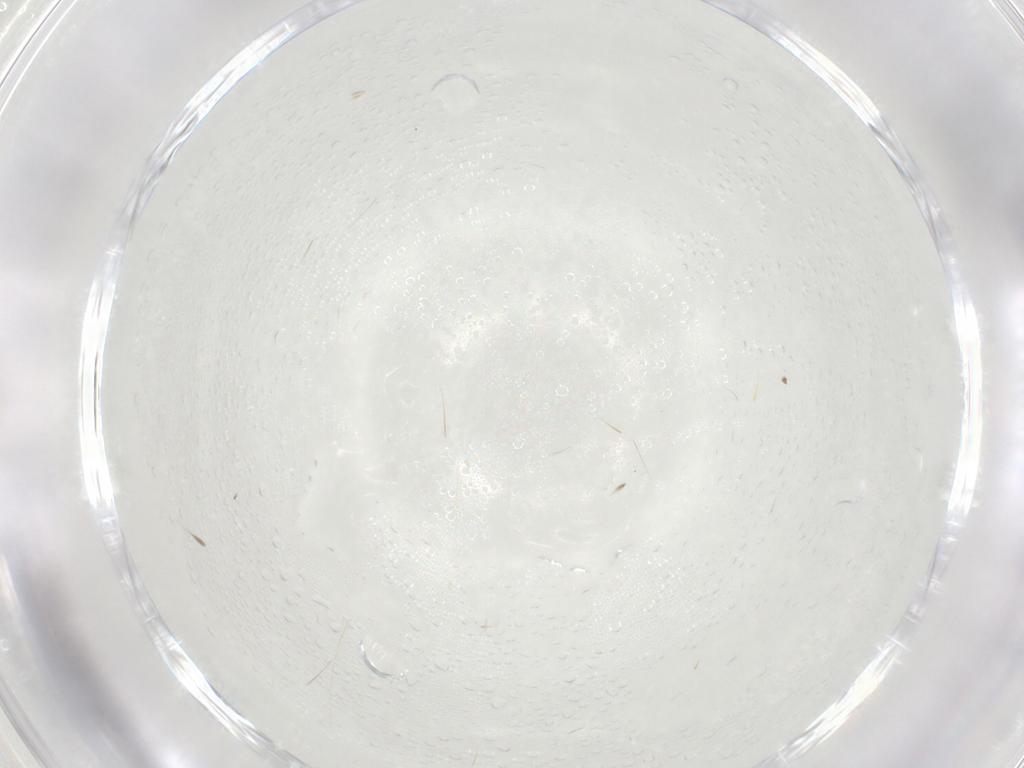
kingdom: Animalia
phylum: Arthropoda
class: Arachnida
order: Trombidiformes
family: Arrenuridae
